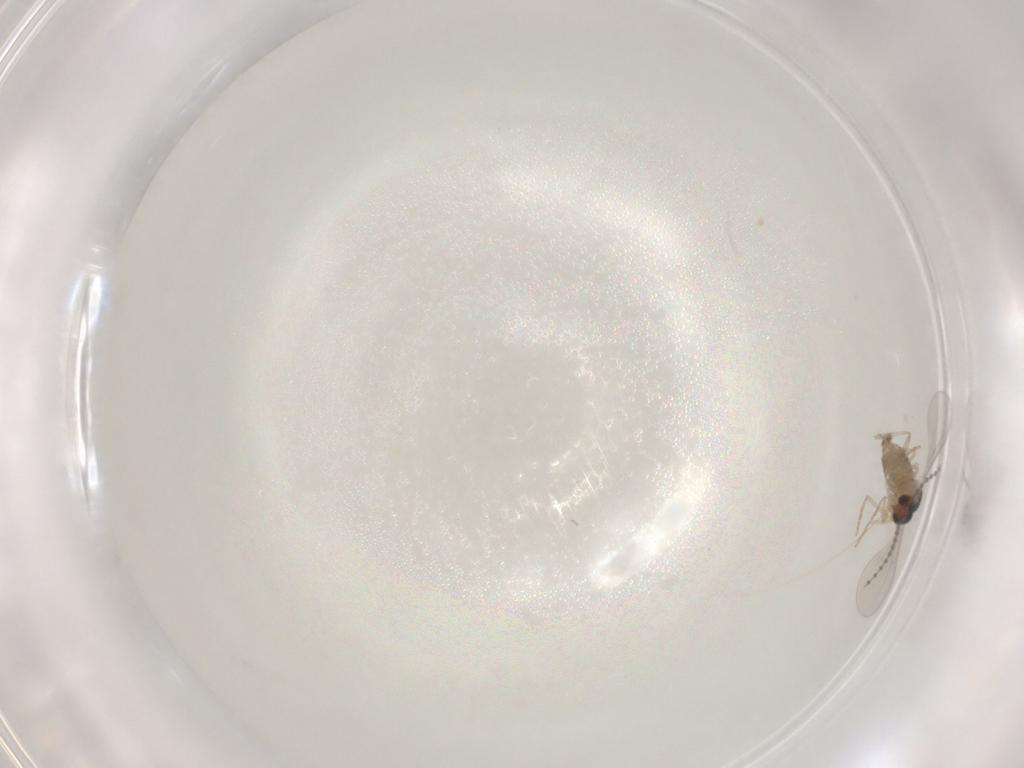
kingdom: Animalia
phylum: Arthropoda
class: Insecta
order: Diptera
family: Cecidomyiidae
